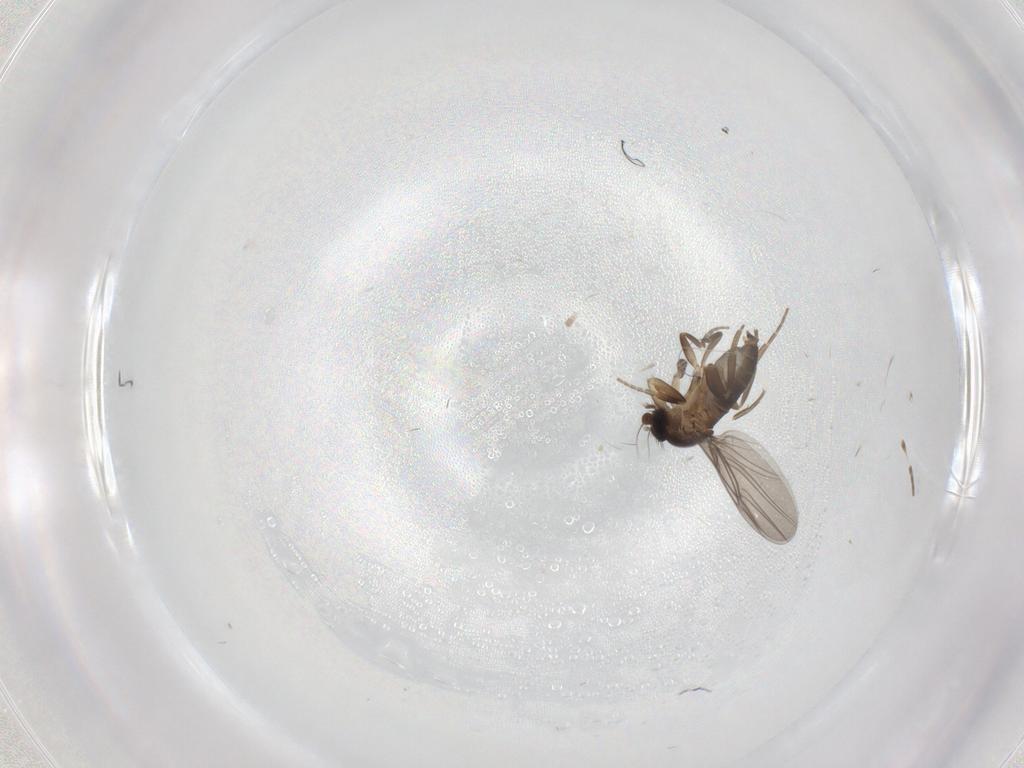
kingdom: Animalia
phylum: Arthropoda
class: Insecta
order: Diptera
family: Phoridae
